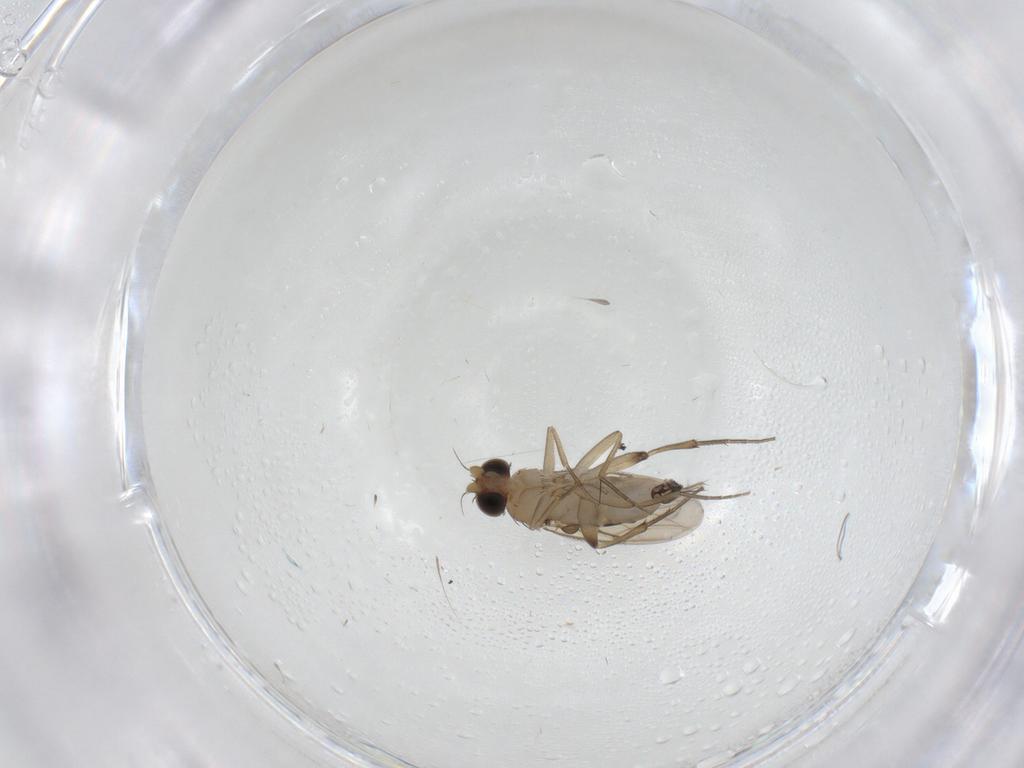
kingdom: Animalia
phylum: Arthropoda
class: Insecta
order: Diptera
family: Phoridae
